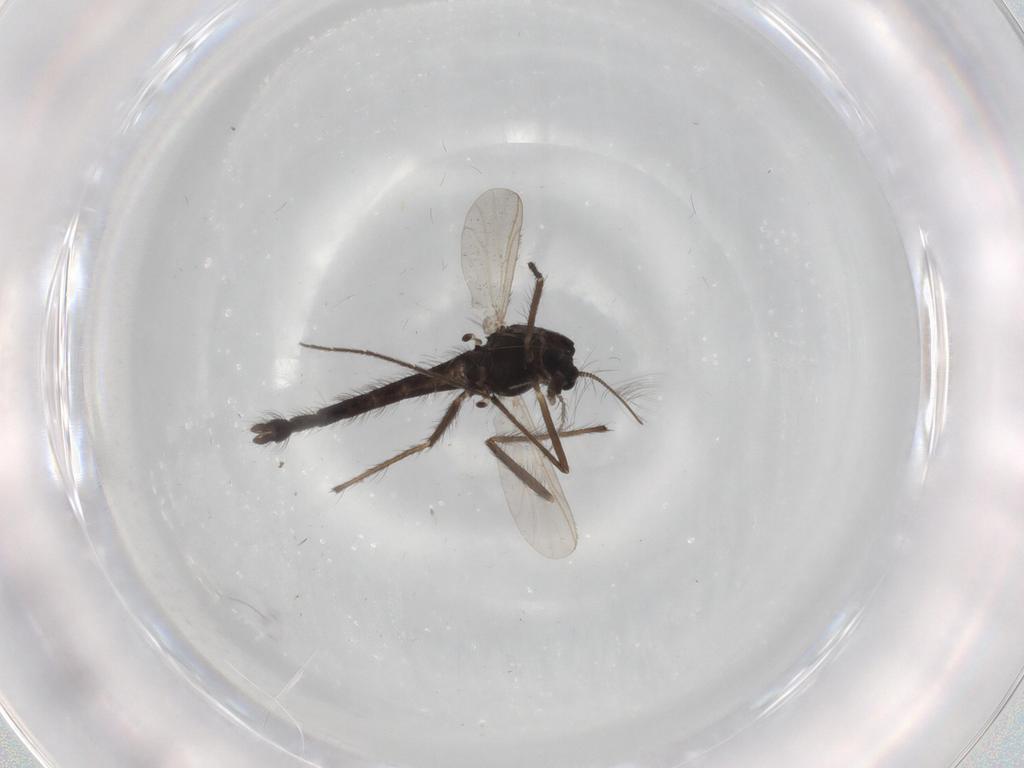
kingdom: Animalia
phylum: Arthropoda
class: Insecta
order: Diptera
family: Chironomidae
